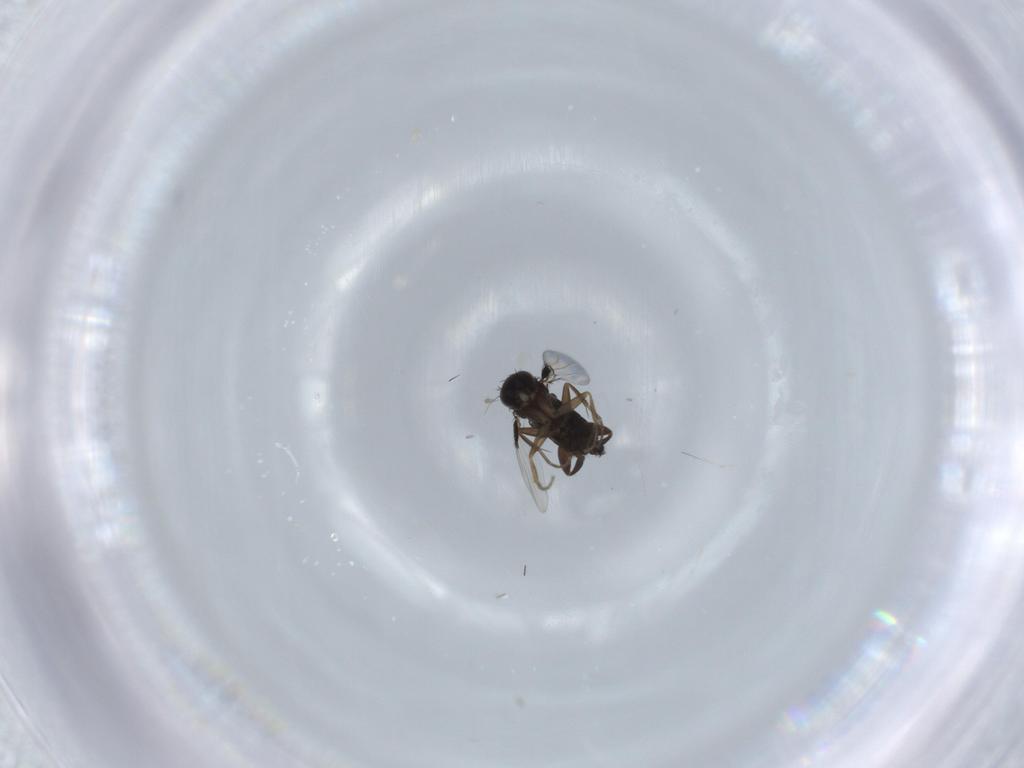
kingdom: Animalia
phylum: Arthropoda
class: Insecta
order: Diptera
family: Phoridae
